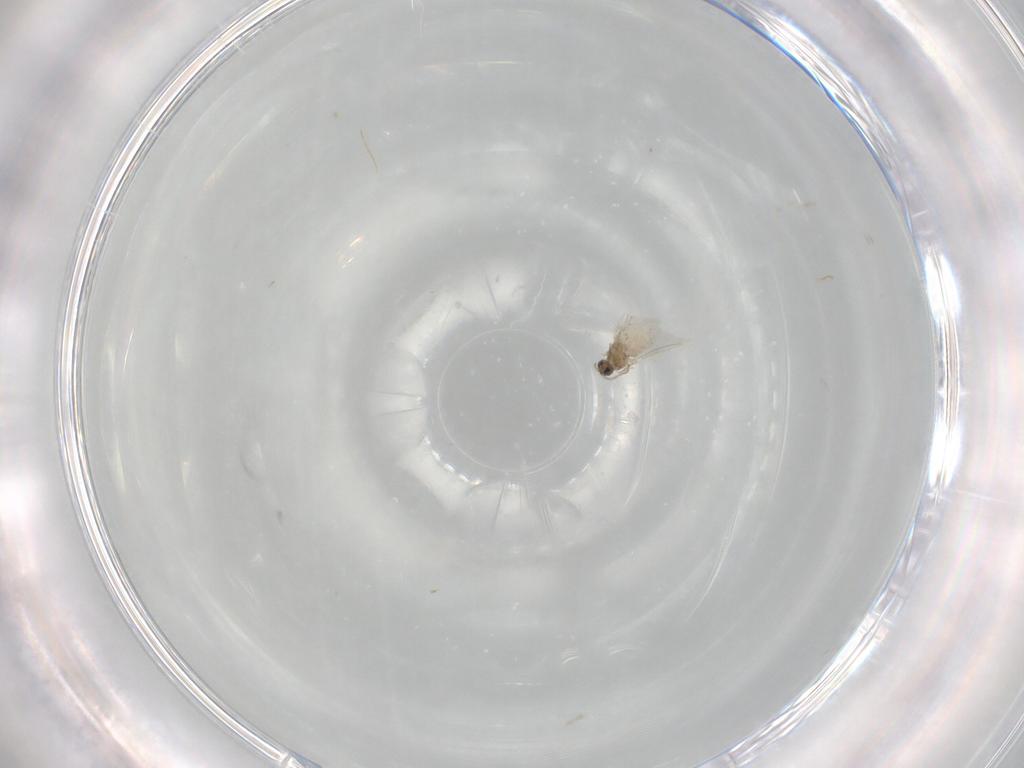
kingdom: Animalia
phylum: Arthropoda
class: Insecta
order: Diptera
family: Cecidomyiidae
